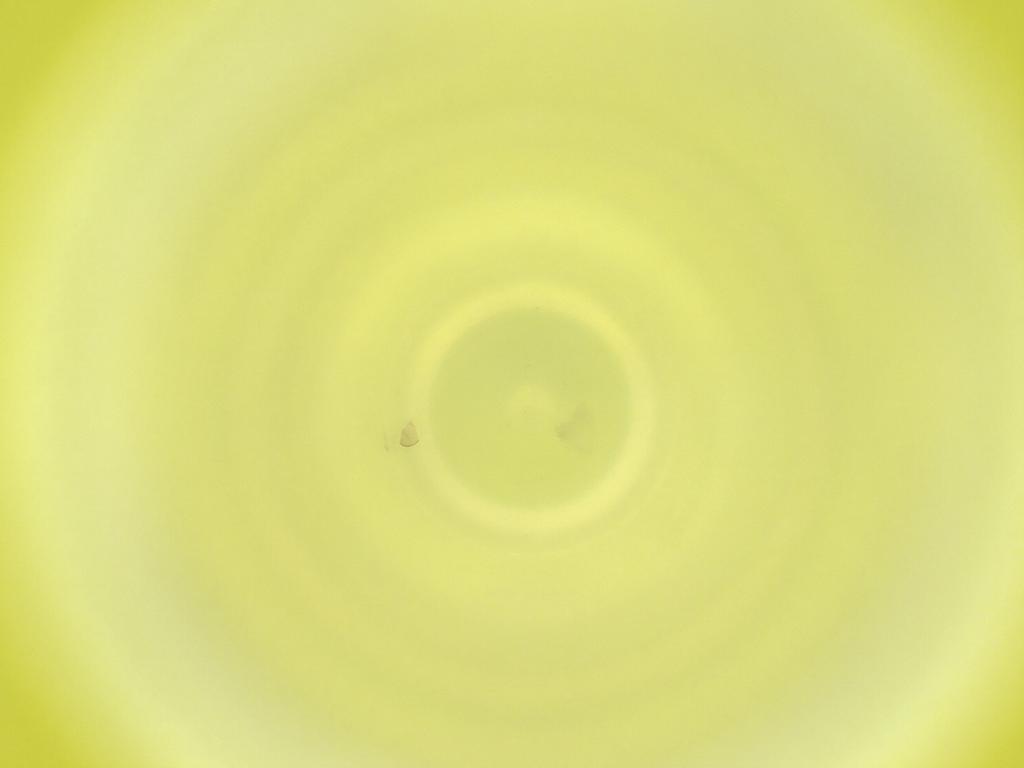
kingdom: Animalia
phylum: Arthropoda
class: Insecta
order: Diptera
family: Cecidomyiidae
